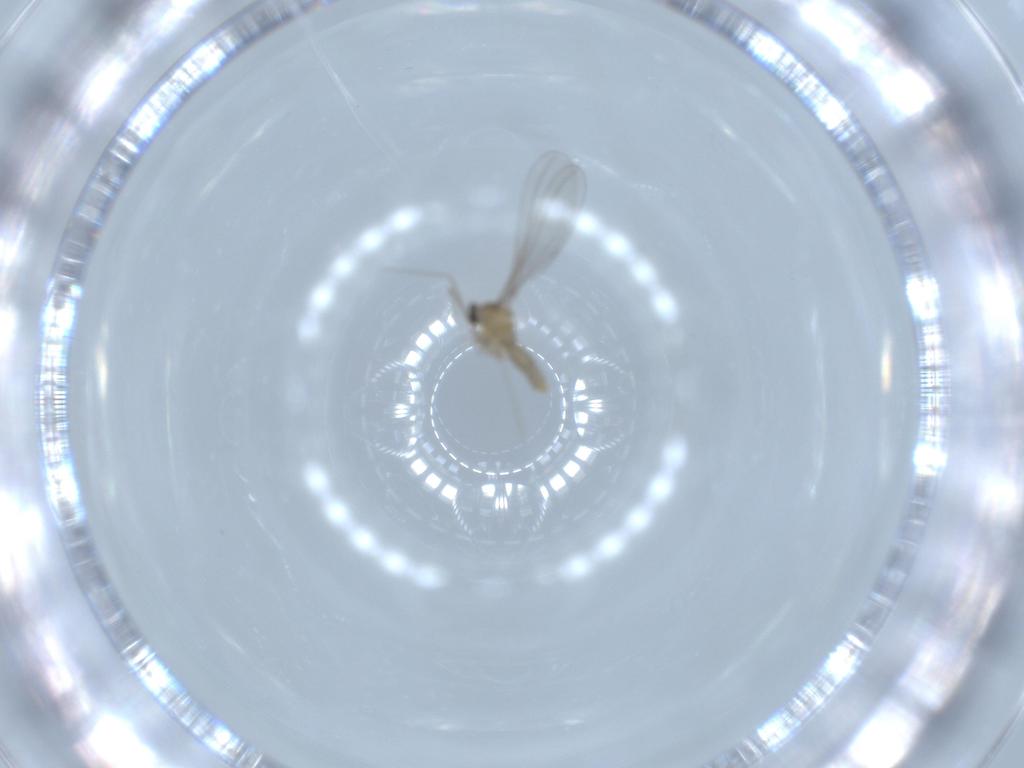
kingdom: Animalia
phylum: Arthropoda
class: Insecta
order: Diptera
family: Cecidomyiidae
